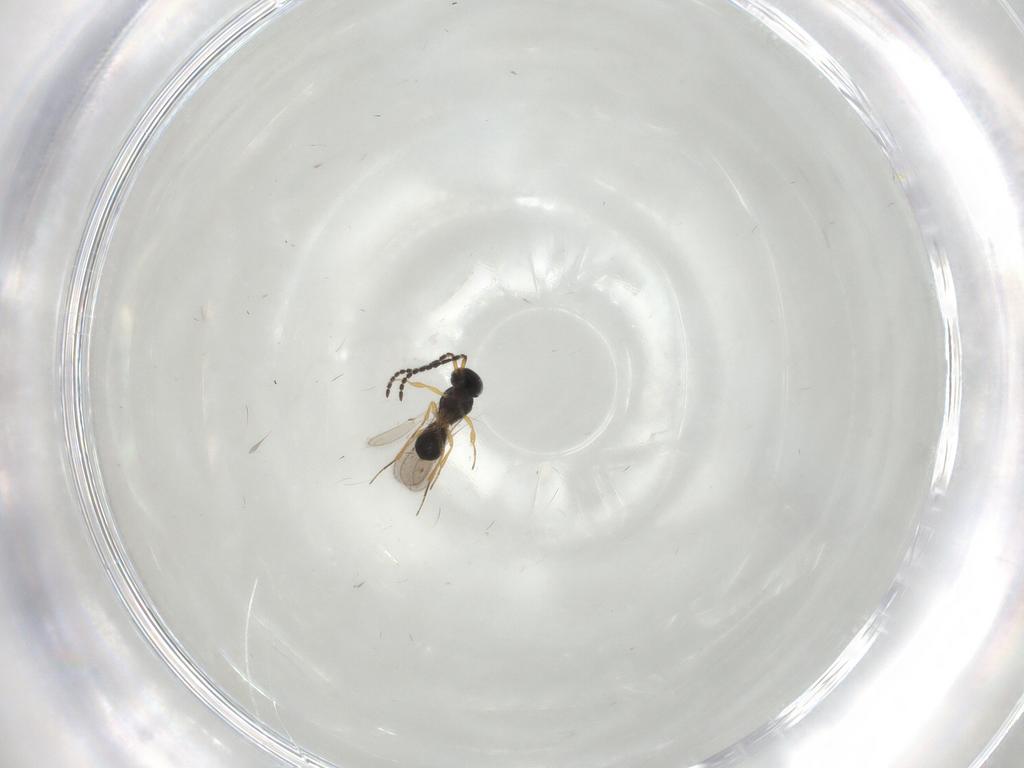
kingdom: Animalia
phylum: Arthropoda
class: Insecta
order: Hymenoptera
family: Scelionidae
